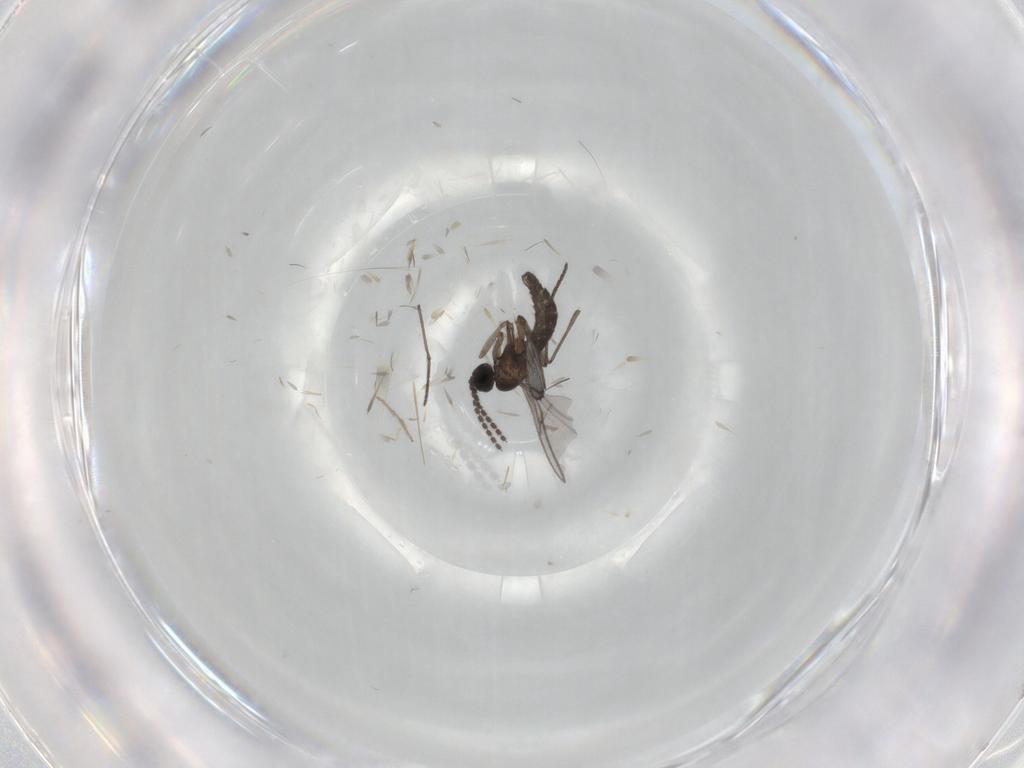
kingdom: Animalia
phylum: Arthropoda
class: Insecta
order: Diptera
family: Chironomidae
